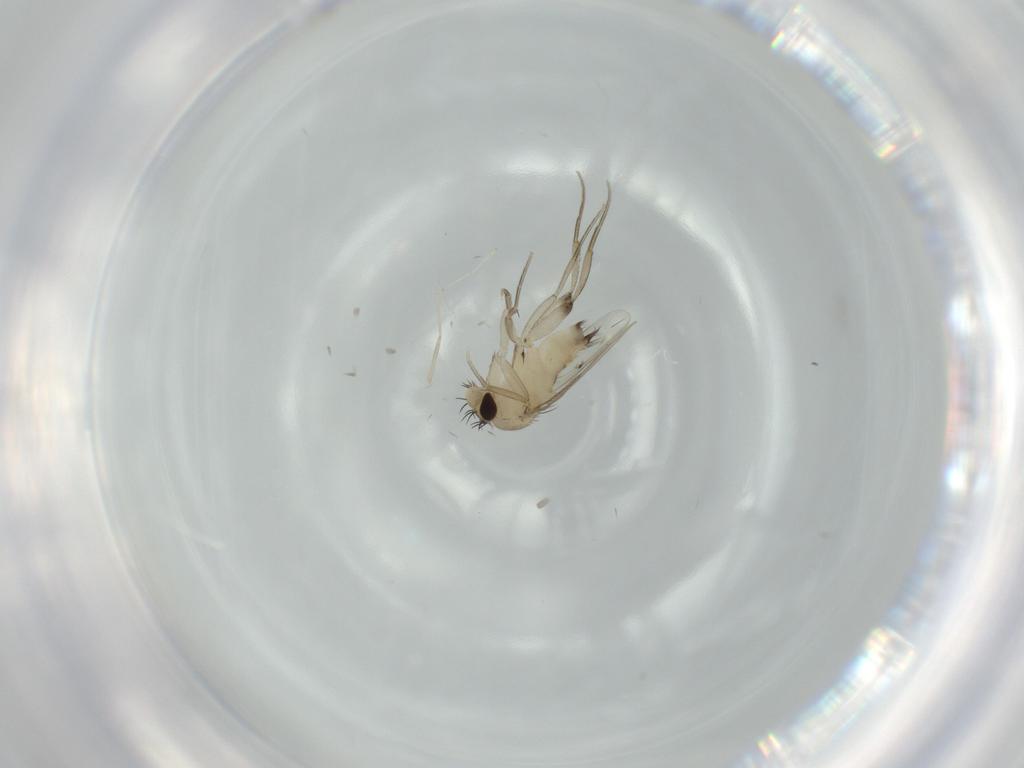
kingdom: Animalia
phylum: Arthropoda
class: Insecta
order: Diptera
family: Phoridae
